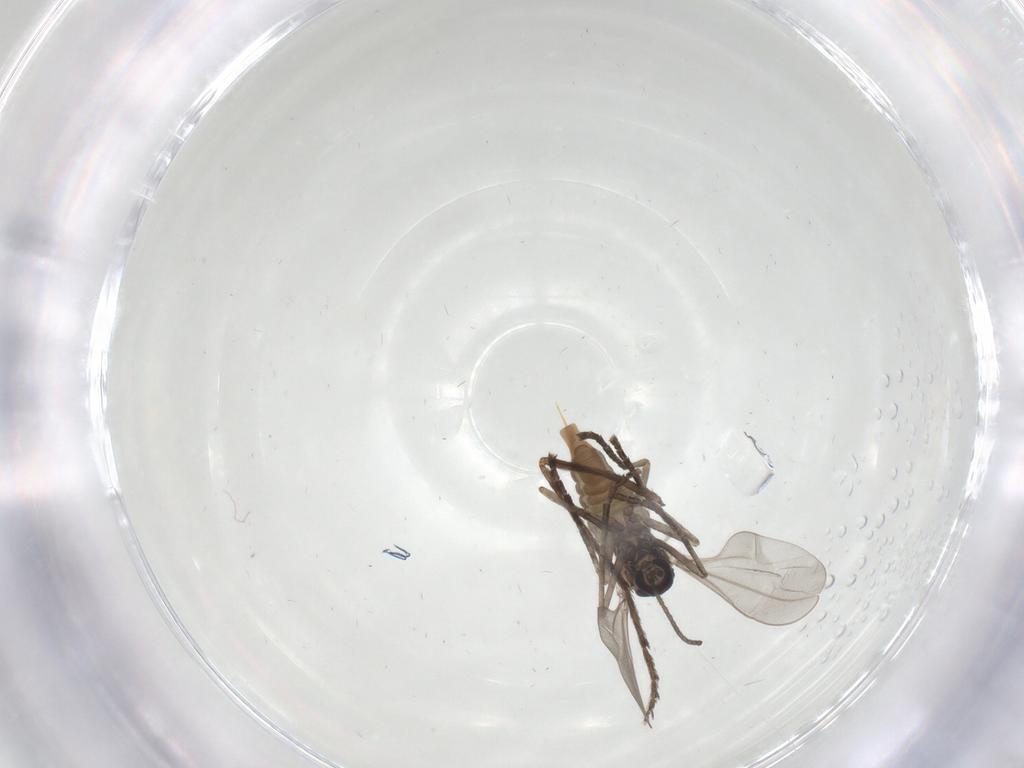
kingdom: Animalia
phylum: Arthropoda
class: Insecta
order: Diptera
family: Cecidomyiidae
